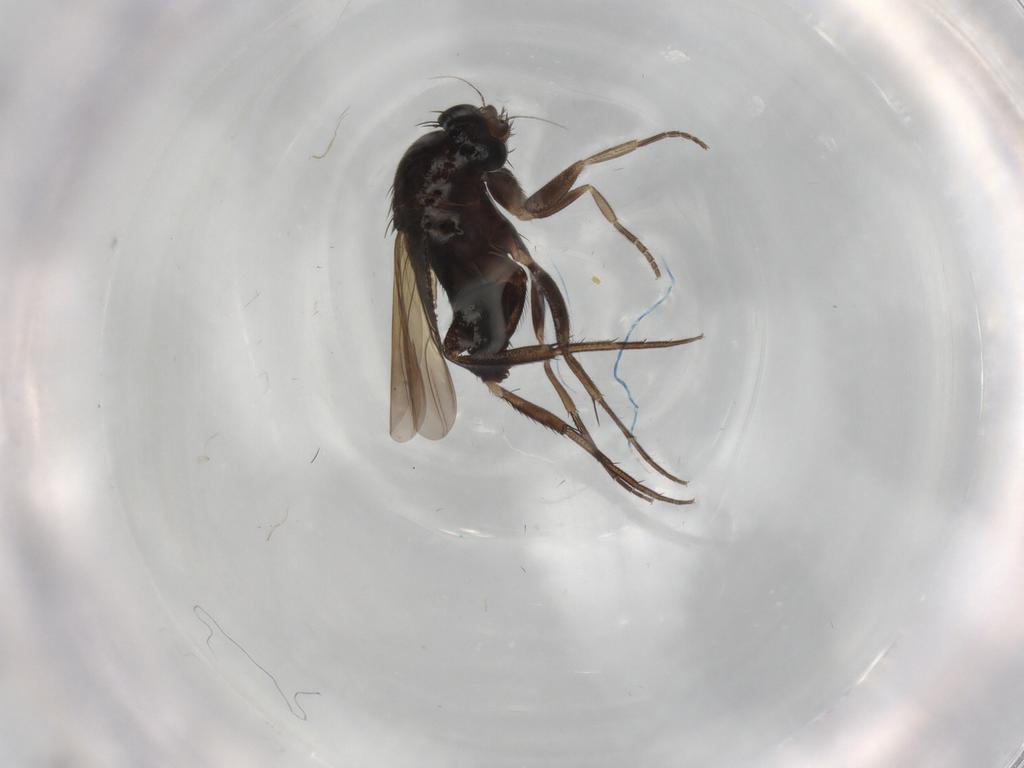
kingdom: Animalia
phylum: Arthropoda
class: Insecta
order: Diptera
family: Phoridae
